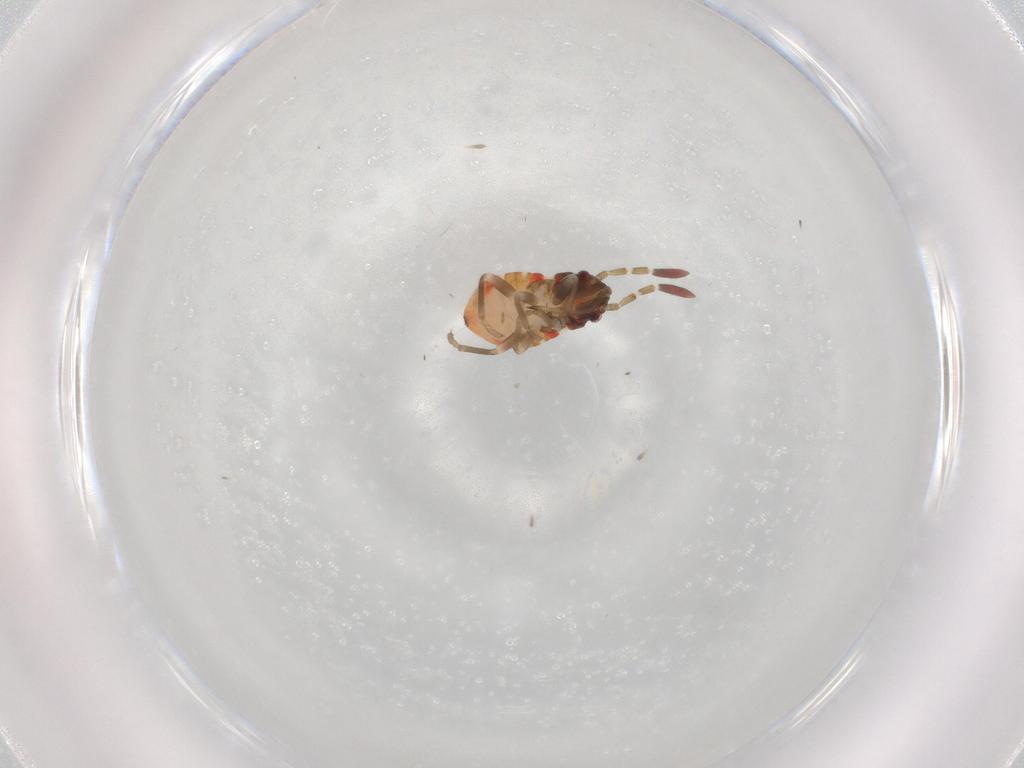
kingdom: Animalia
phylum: Arthropoda
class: Insecta
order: Hemiptera
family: Rhyparochromidae
